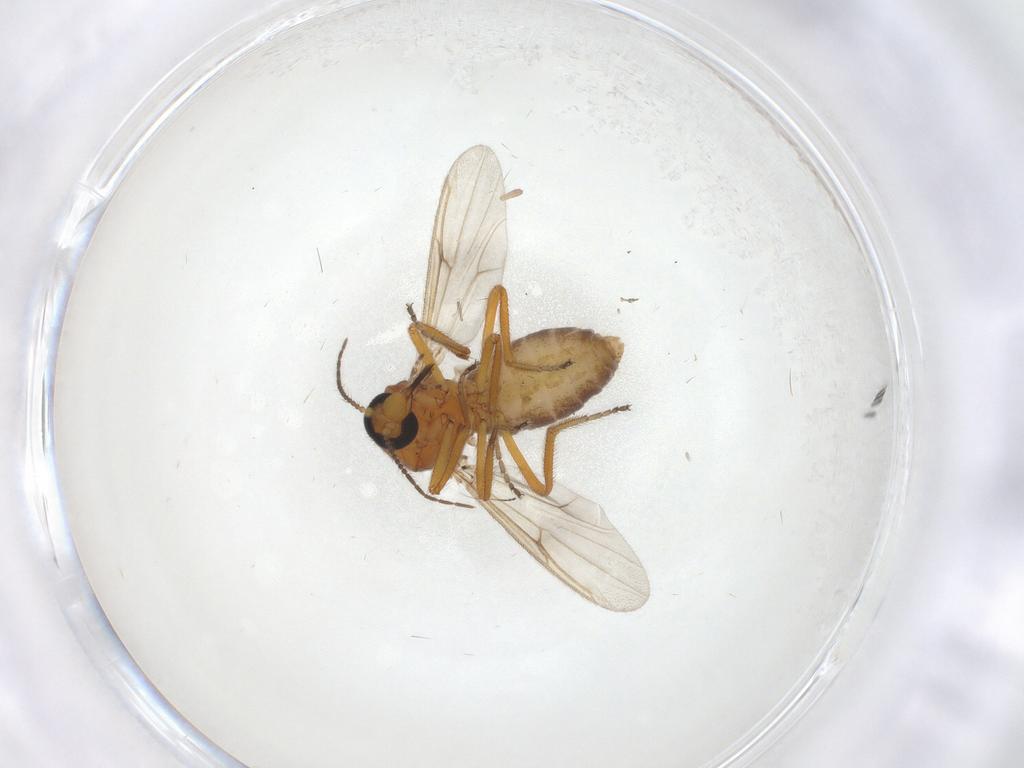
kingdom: Animalia
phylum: Arthropoda
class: Insecta
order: Diptera
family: Ceratopogonidae
